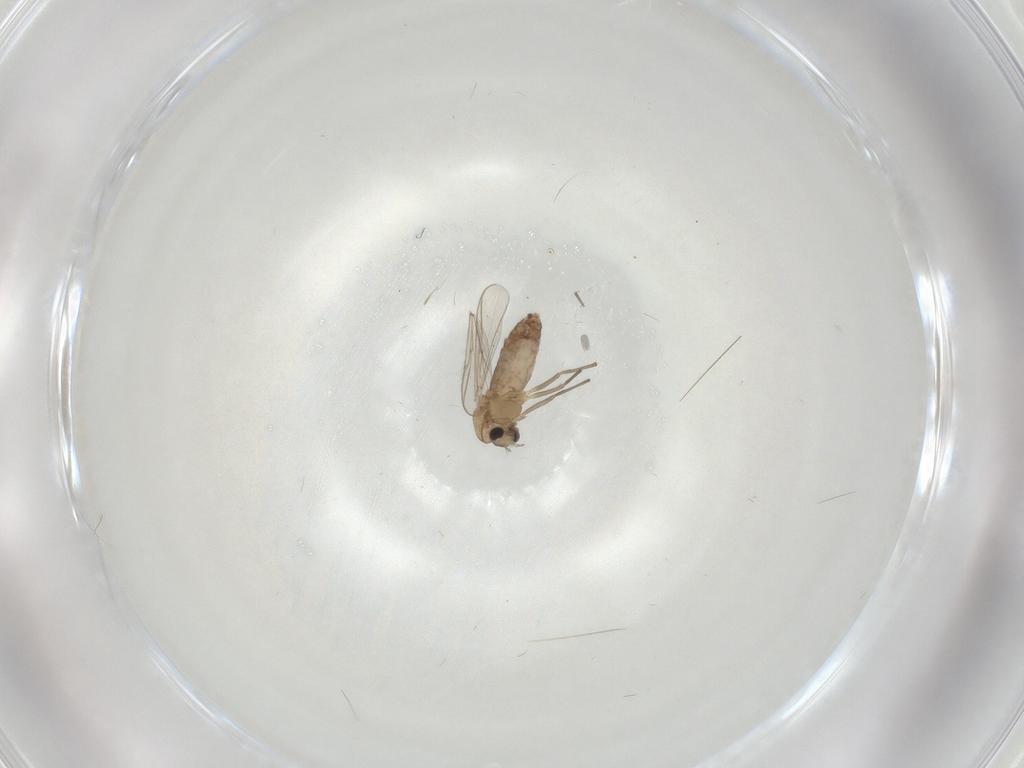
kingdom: Animalia
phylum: Arthropoda
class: Insecta
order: Diptera
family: Chironomidae
